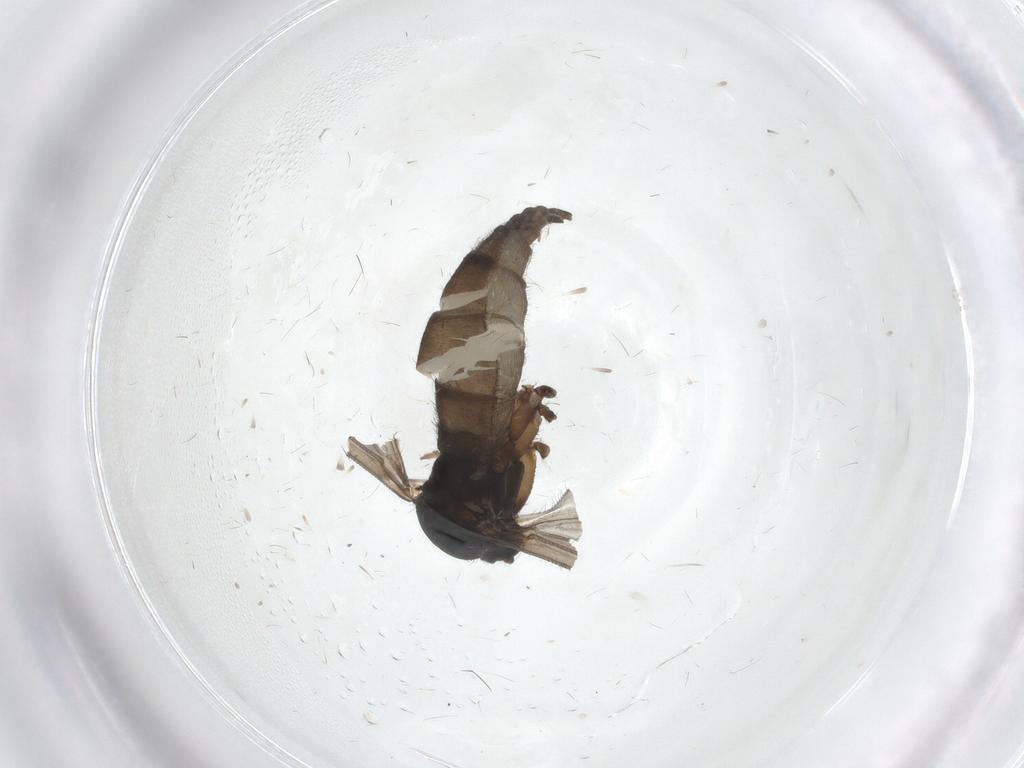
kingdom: Animalia
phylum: Arthropoda
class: Insecta
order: Diptera
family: Sciaridae
